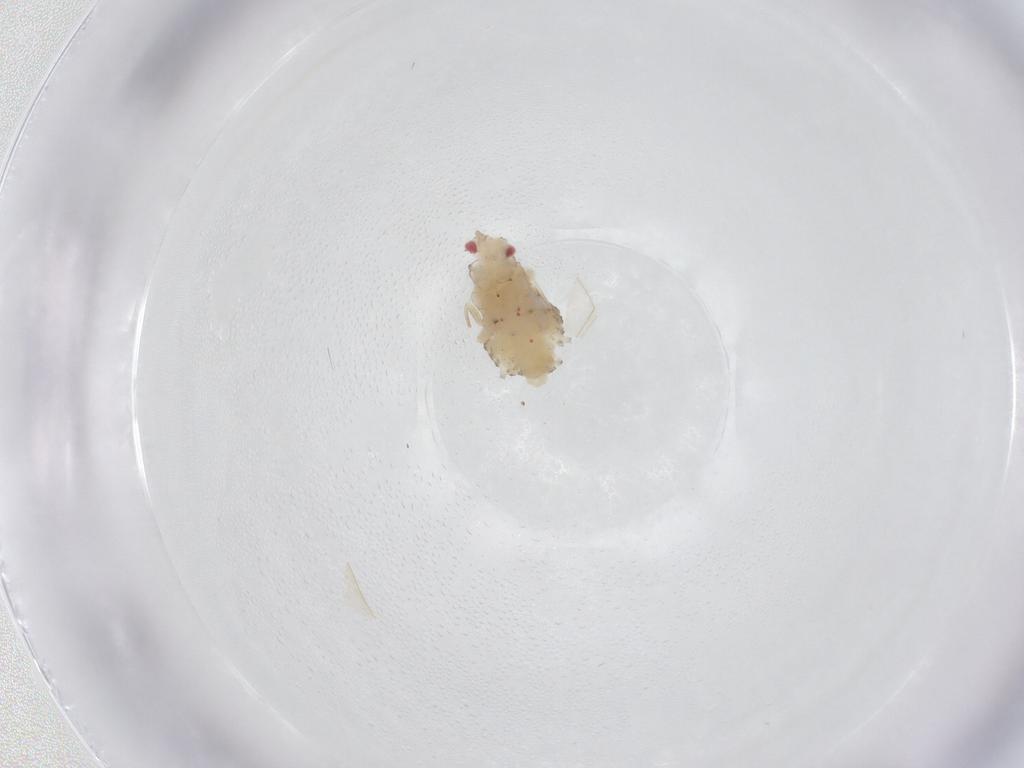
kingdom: Animalia
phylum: Arthropoda
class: Insecta
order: Hemiptera
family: Aphididae
